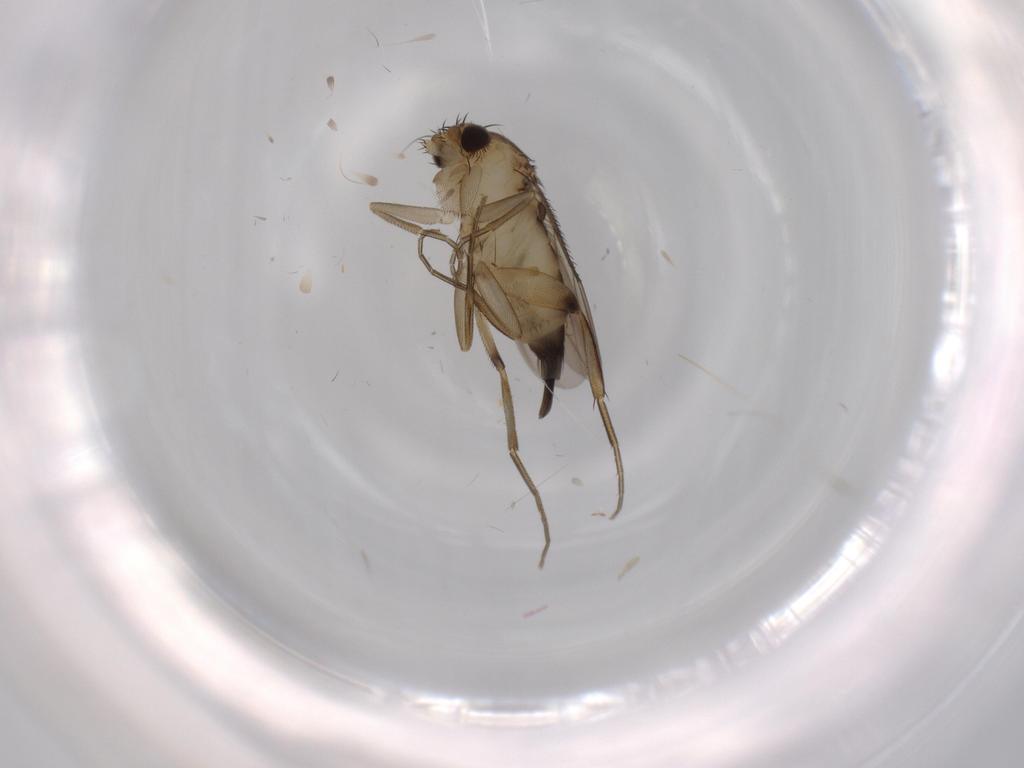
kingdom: Animalia
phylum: Arthropoda
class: Insecta
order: Diptera
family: Phoridae
